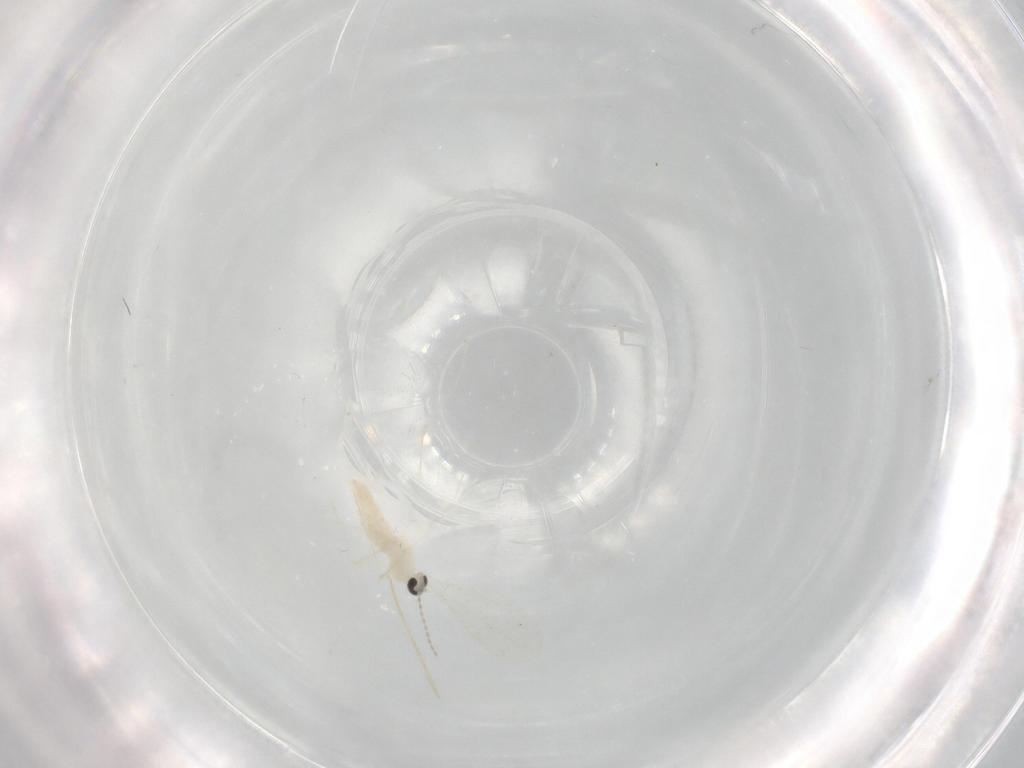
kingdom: Animalia
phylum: Arthropoda
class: Insecta
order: Diptera
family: Cecidomyiidae
